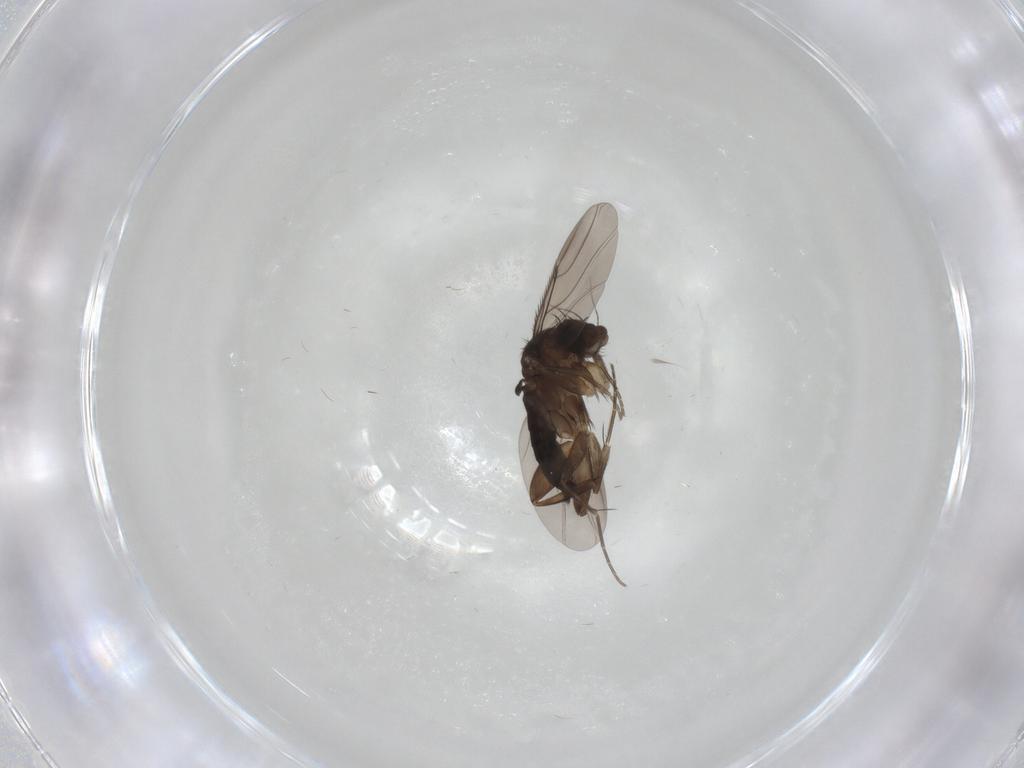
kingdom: Animalia
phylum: Arthropoda
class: Insecta
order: Diptera
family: Phoridae
